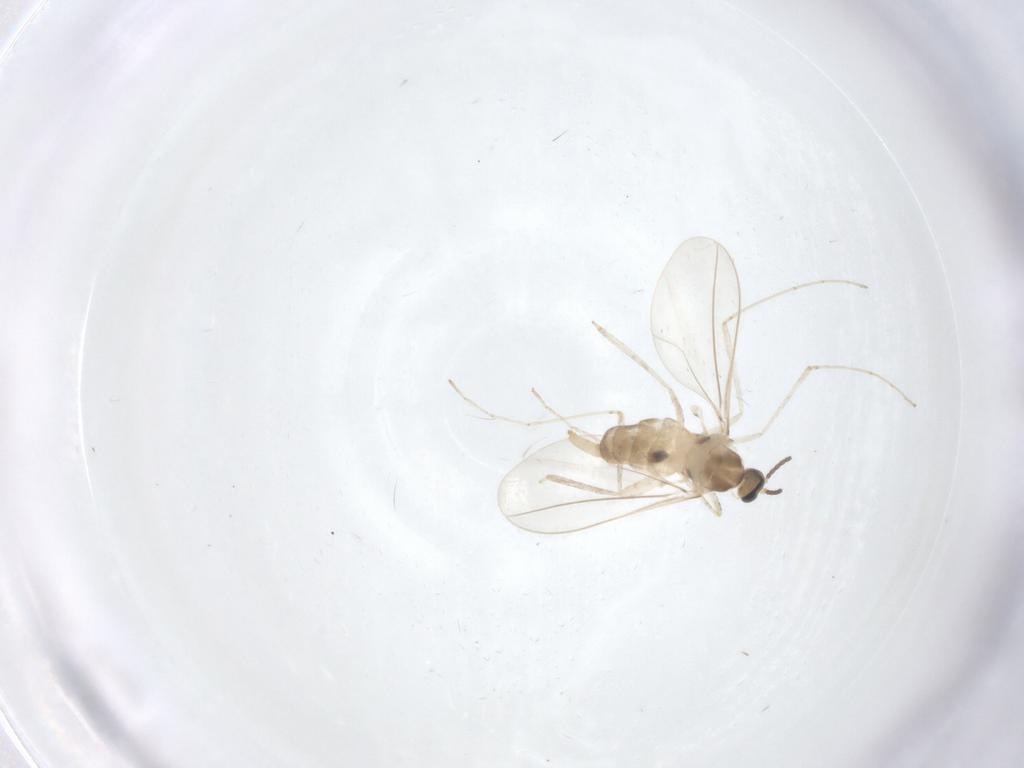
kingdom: Animalia
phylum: Arthropoda
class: Insecta
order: Diptera
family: Cecidomyiidae
